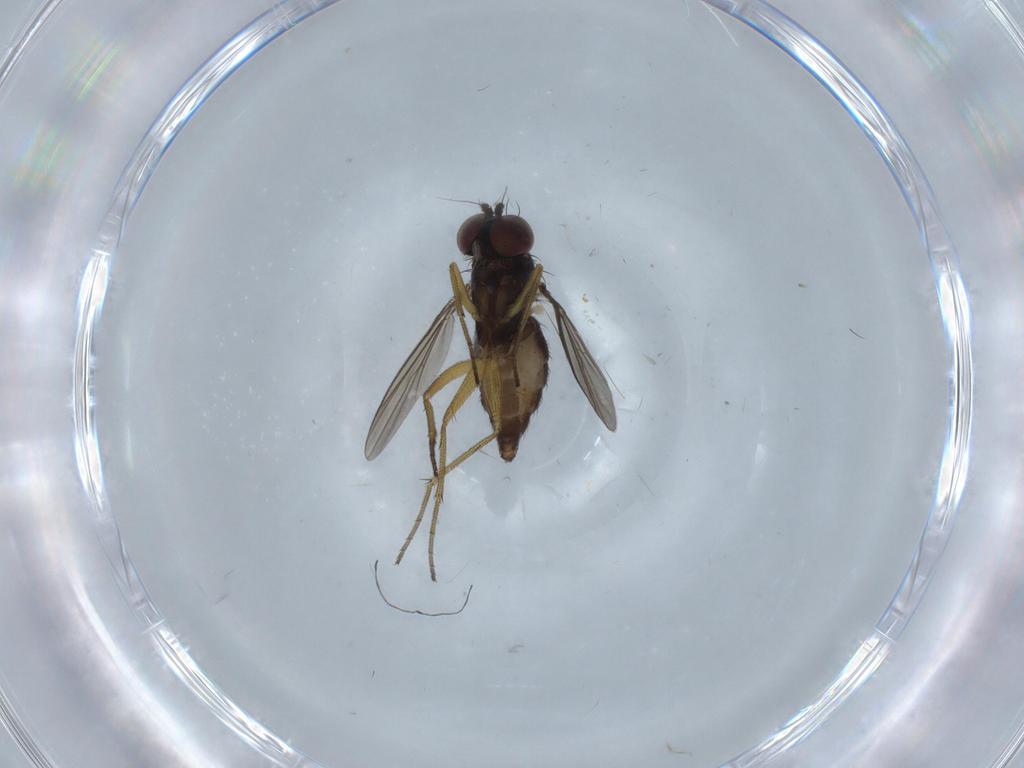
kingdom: Animalia
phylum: Arthropoda
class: Insecta
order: Diptera
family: Dolichopodidae
